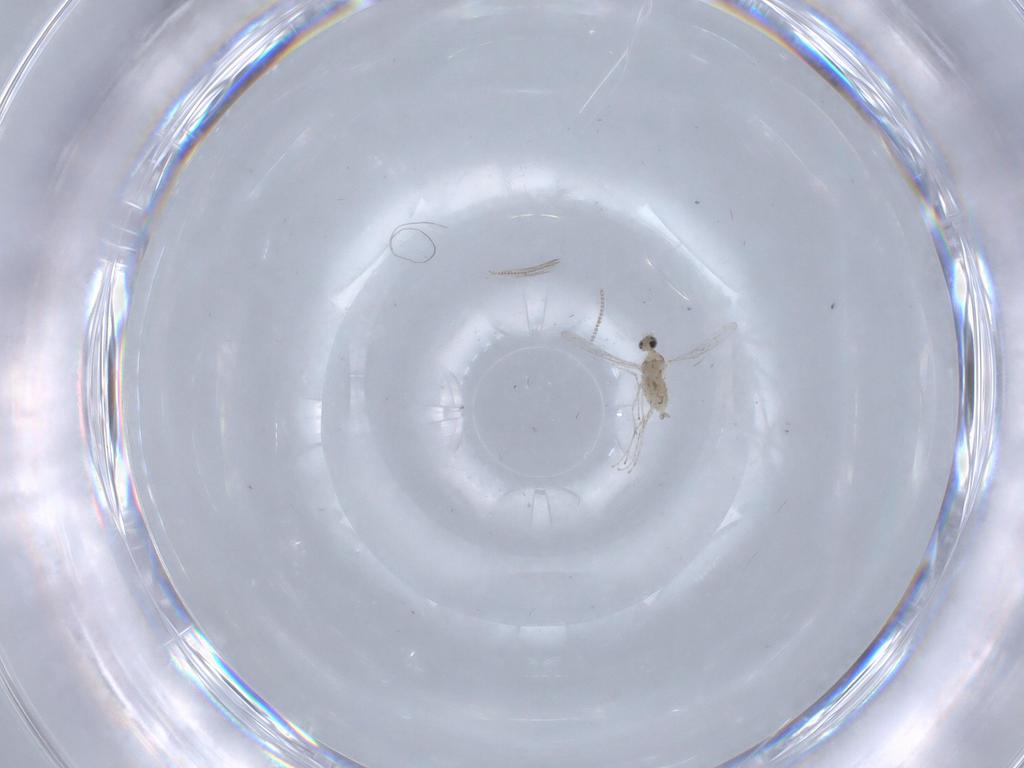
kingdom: Animalia
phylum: Arthropoda
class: Insecta
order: Diptera
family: Chironomidae
